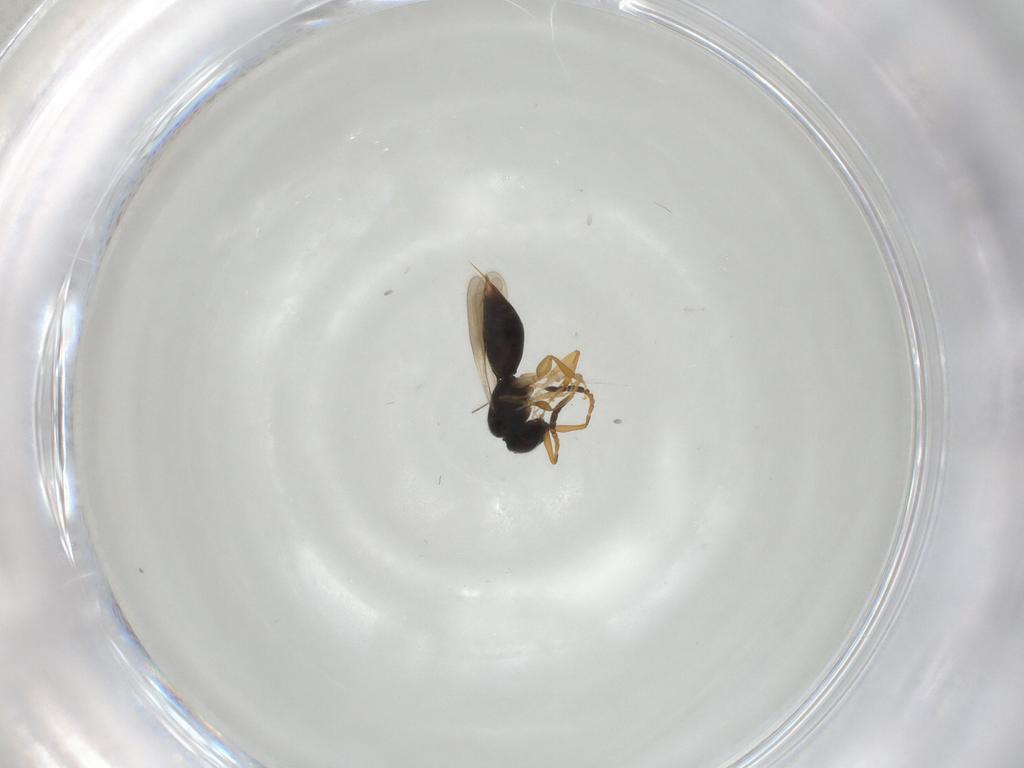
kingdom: Animalia
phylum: Arthropoda
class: Insecta
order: Hymenoptera
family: Ceraphronidae
